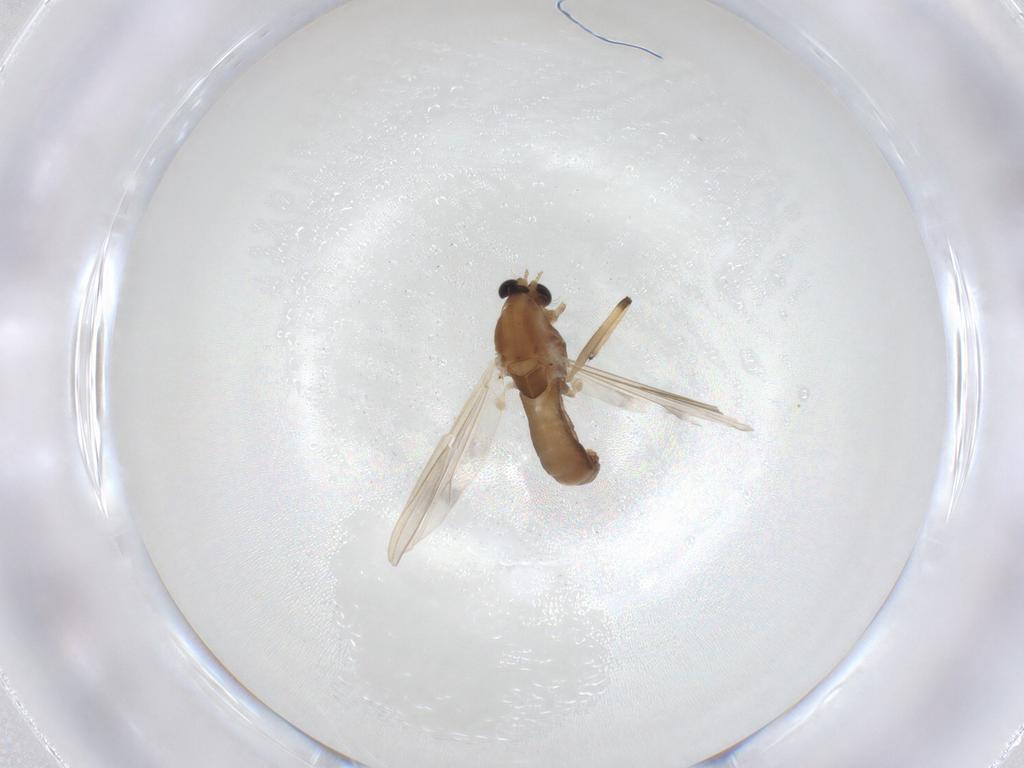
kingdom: Animalia
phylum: Arthropoda
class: Insecta
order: Diptera
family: Chironomidae
